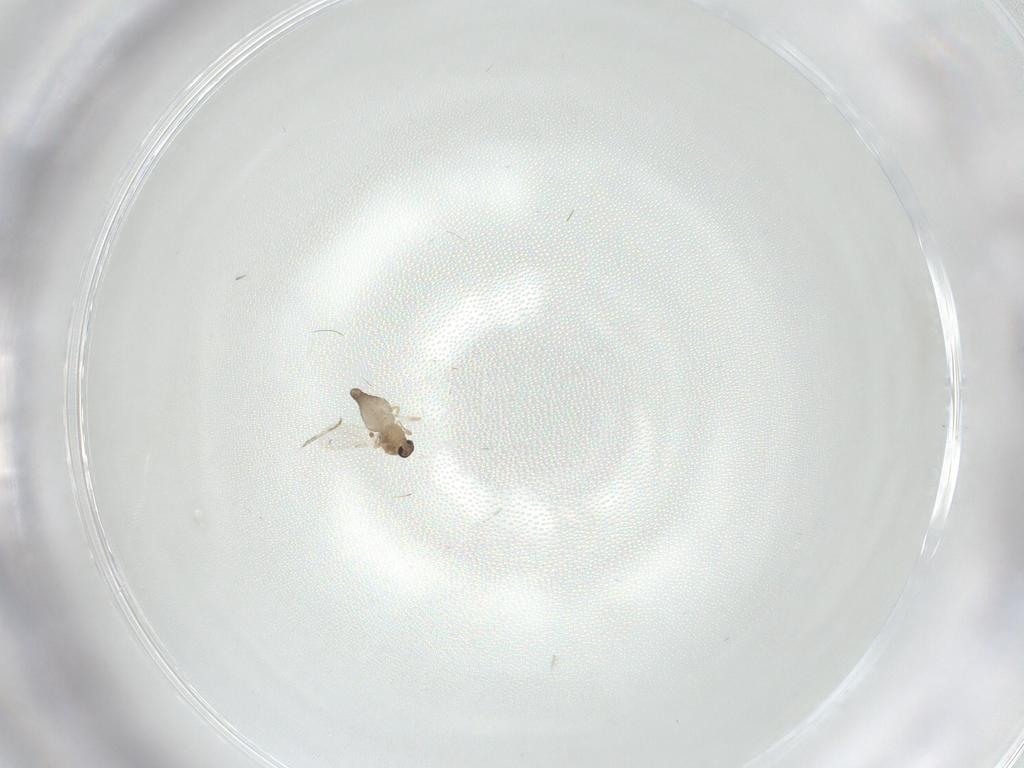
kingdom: Animalia
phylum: Arthropoda
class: Insecta
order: Diptera
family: Ceratopogonidae
